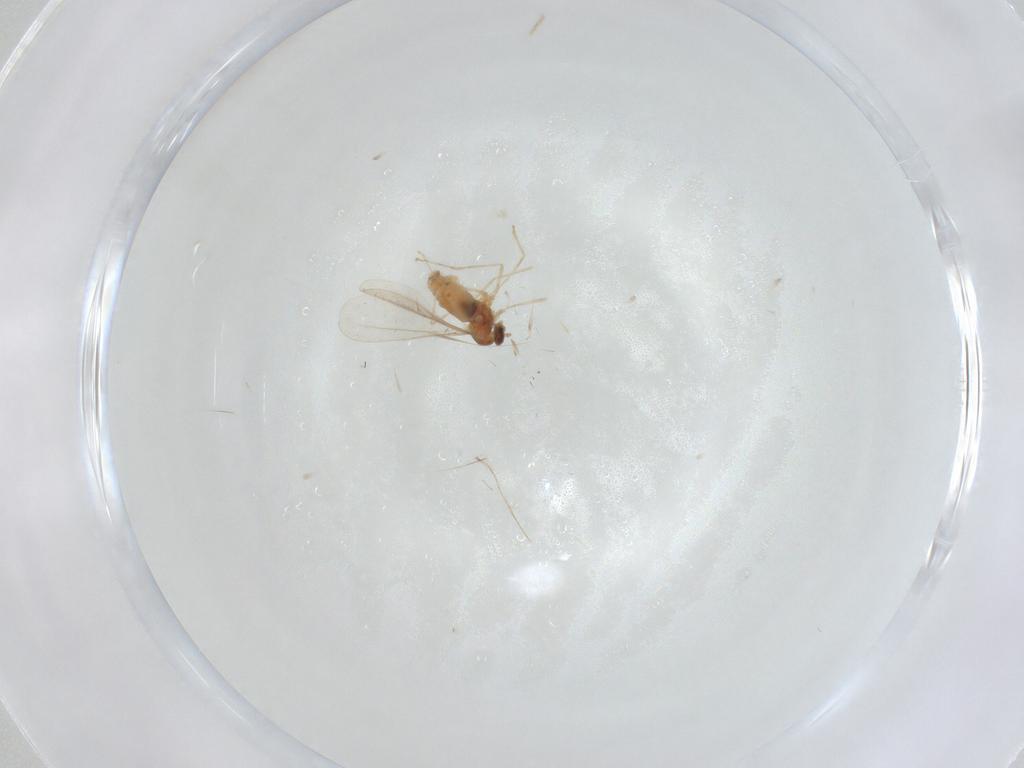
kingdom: Animalia
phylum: Arthropoda
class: Insecta
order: Diptera
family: Cecidomyiidae
